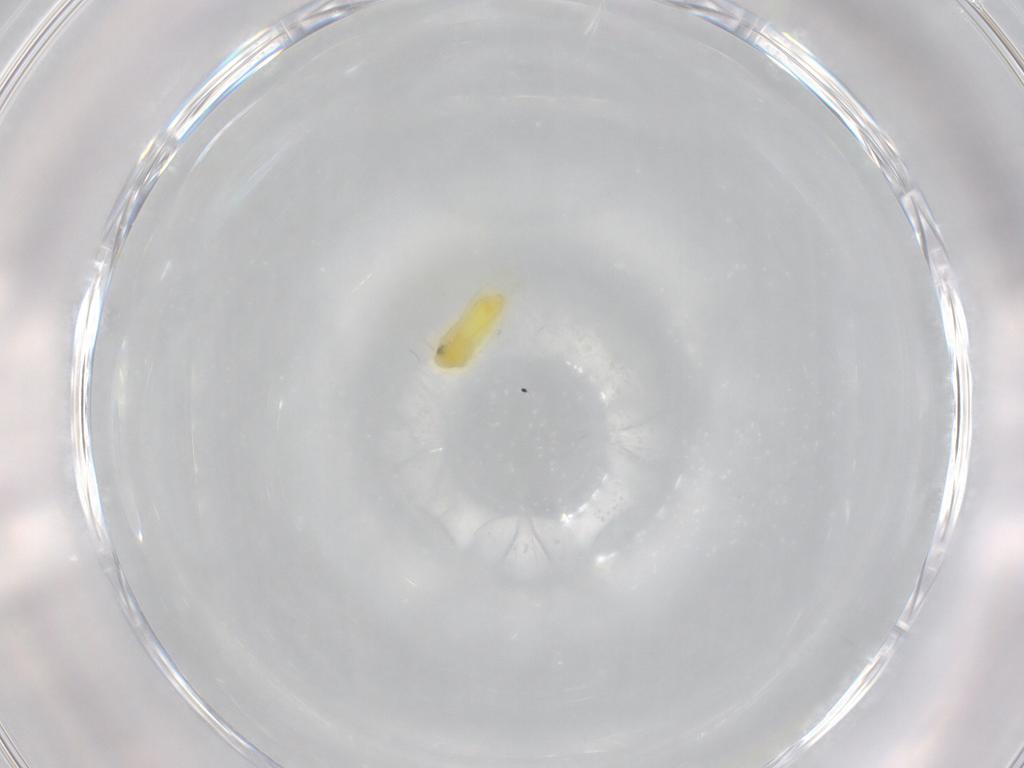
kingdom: Animalia
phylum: Arthropoda
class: Insecta
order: Hemiptera
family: Aleyrodidae
